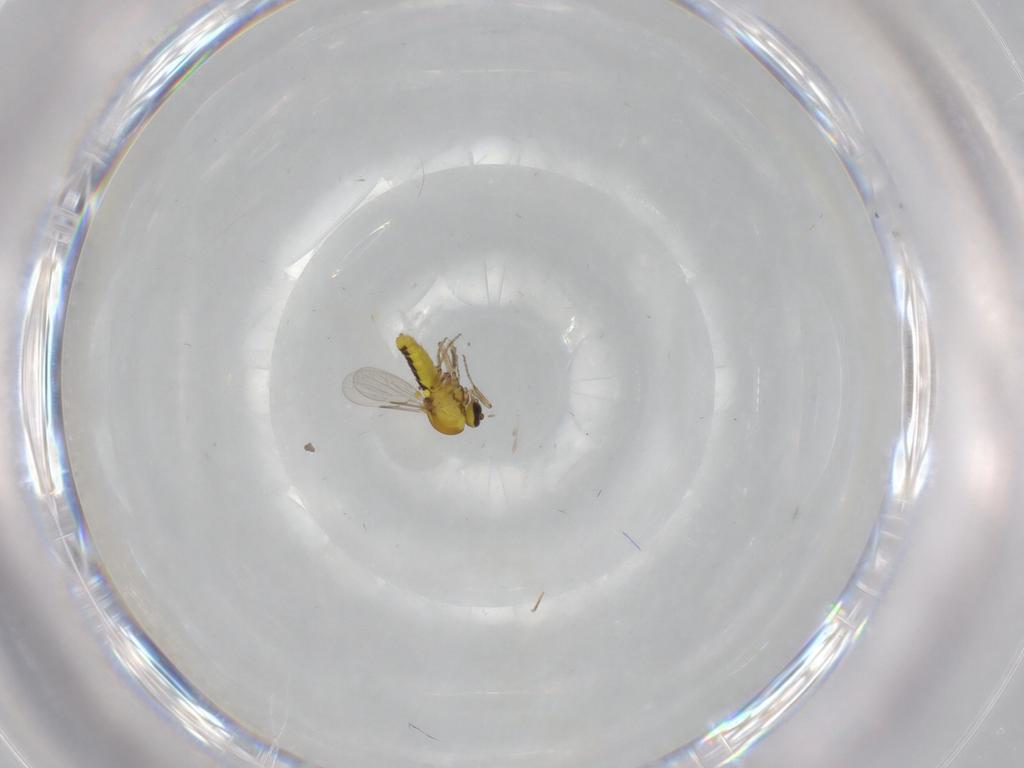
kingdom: Animalia
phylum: Arthropoda
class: Insecta
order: Diptera
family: Ceratopogonidae
